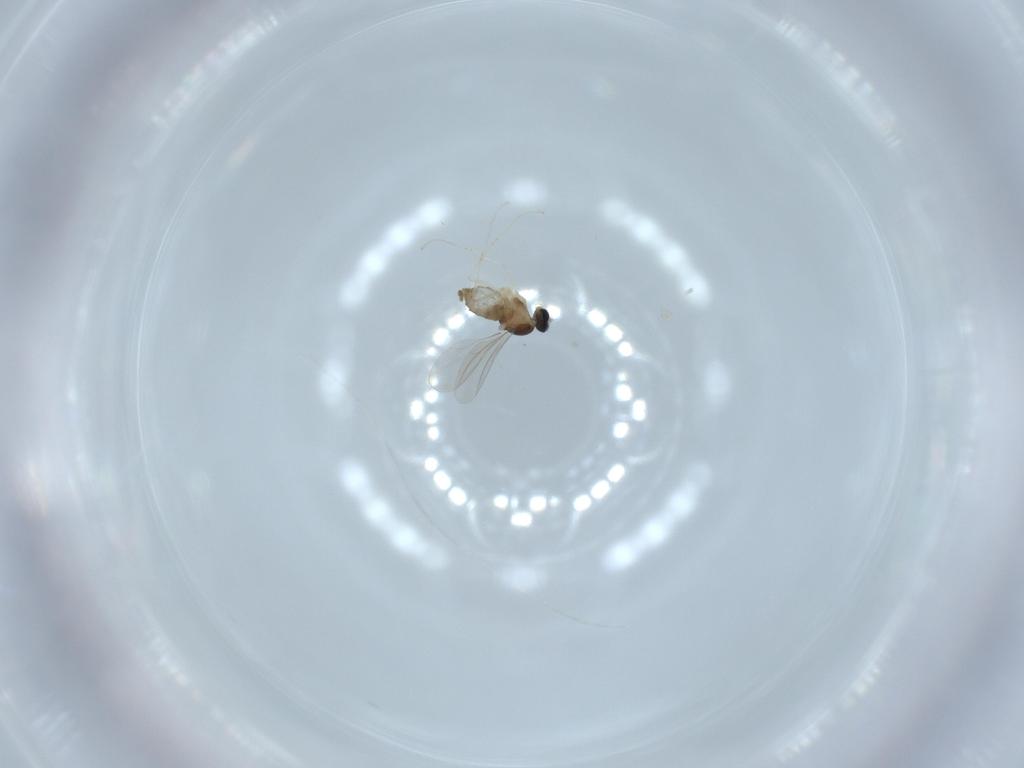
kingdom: Animalia
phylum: Arthropoda
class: Insecta
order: Diptera
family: Cecidomyiidae
